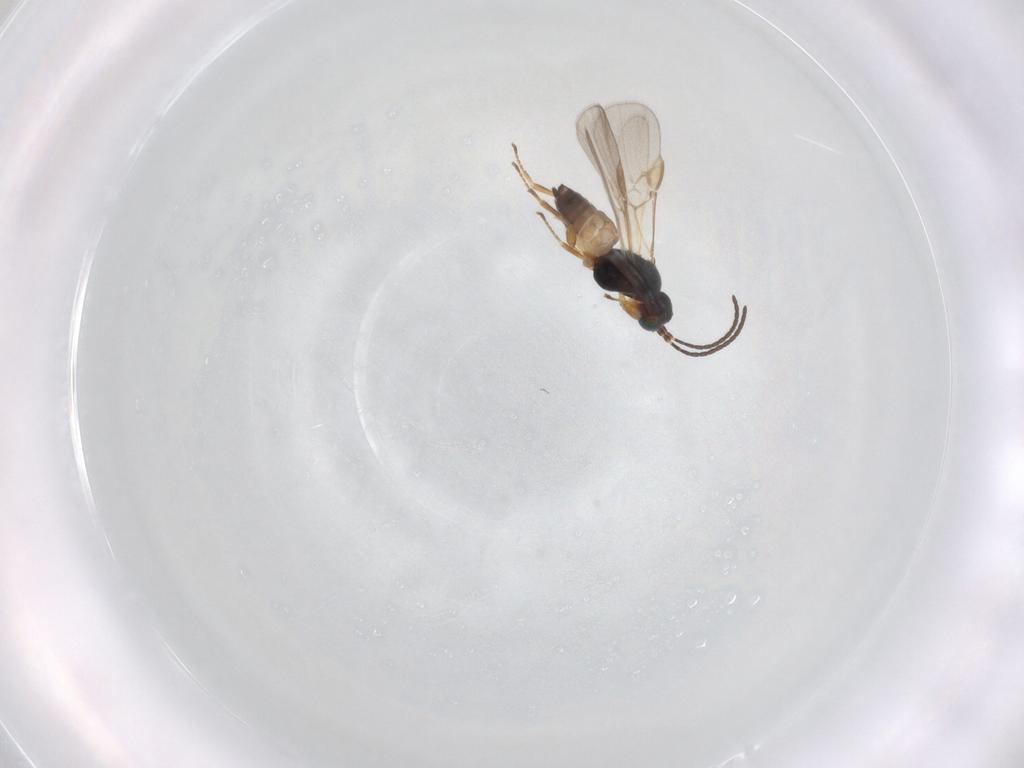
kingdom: Animalia
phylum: Arthropoda
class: Insecta
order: Hymenoptera
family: Braconidae
